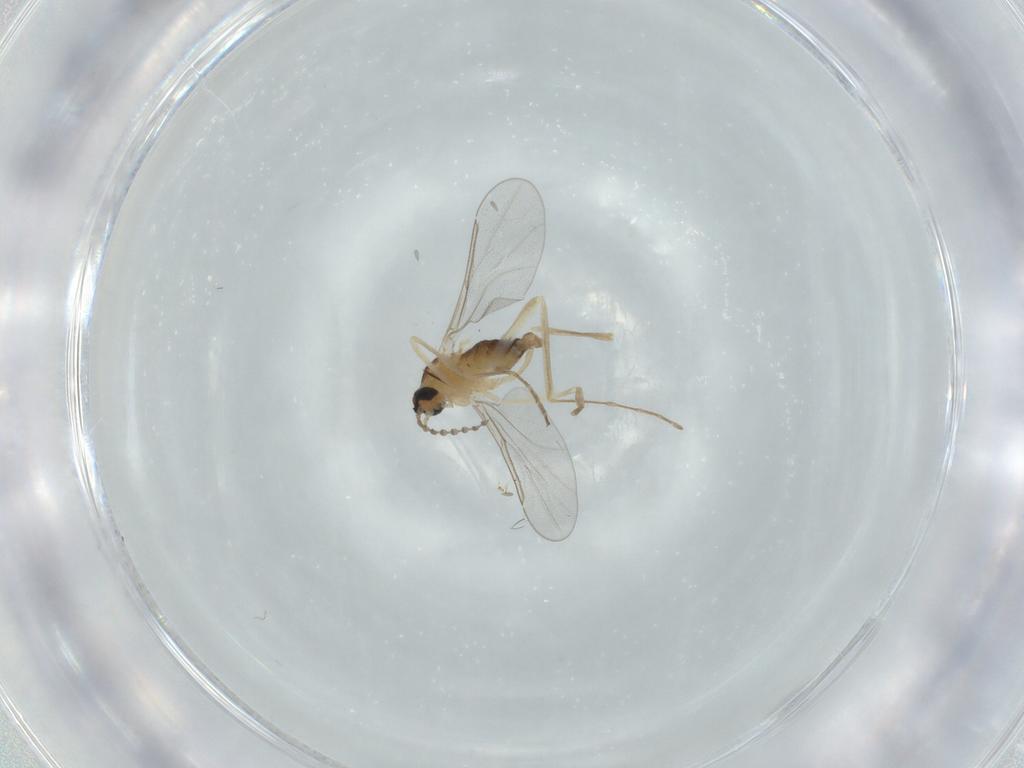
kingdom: Animalia
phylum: Arthropoda
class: Insecta
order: Diptera
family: Cecidomyiidae
